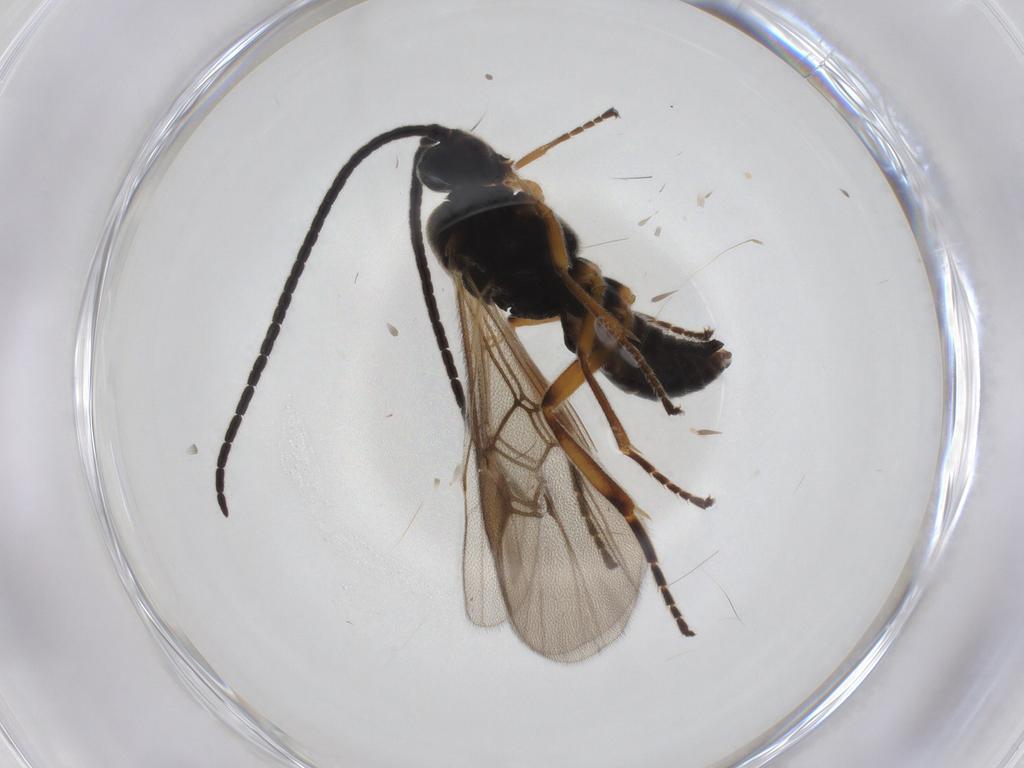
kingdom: Animalia
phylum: Arthropoda
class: Insecta
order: Hymenoptera
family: Braconidae
